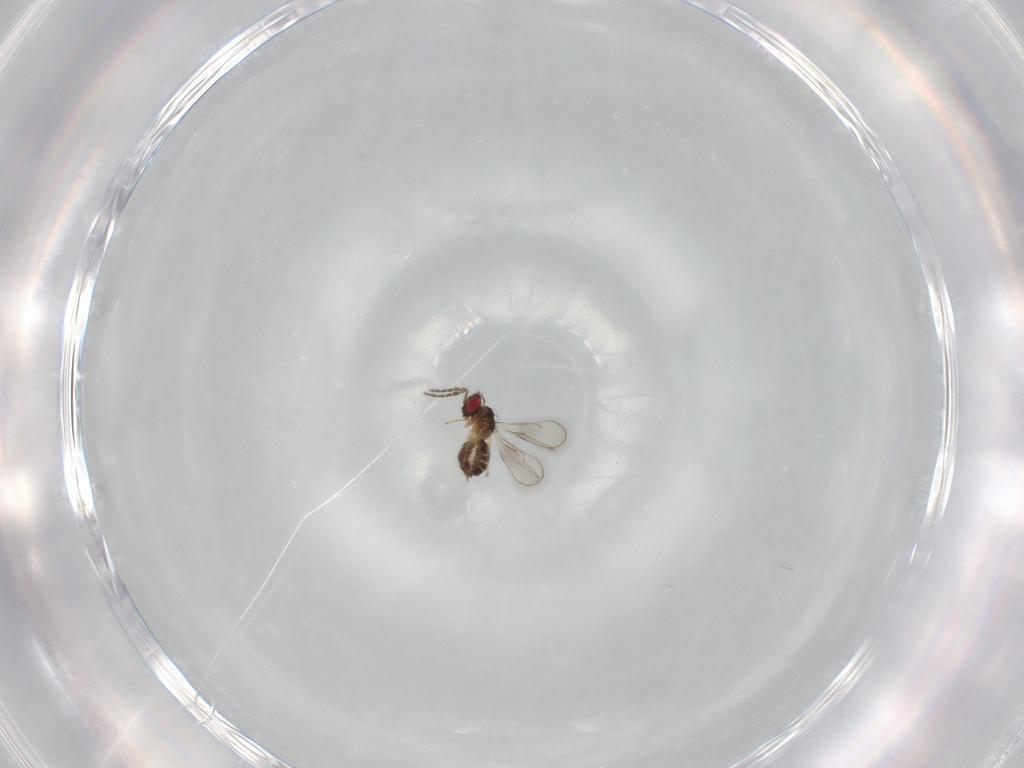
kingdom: Animalia
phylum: Arthropoda
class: Insecta
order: Hymenoptera
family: Eulophidae
